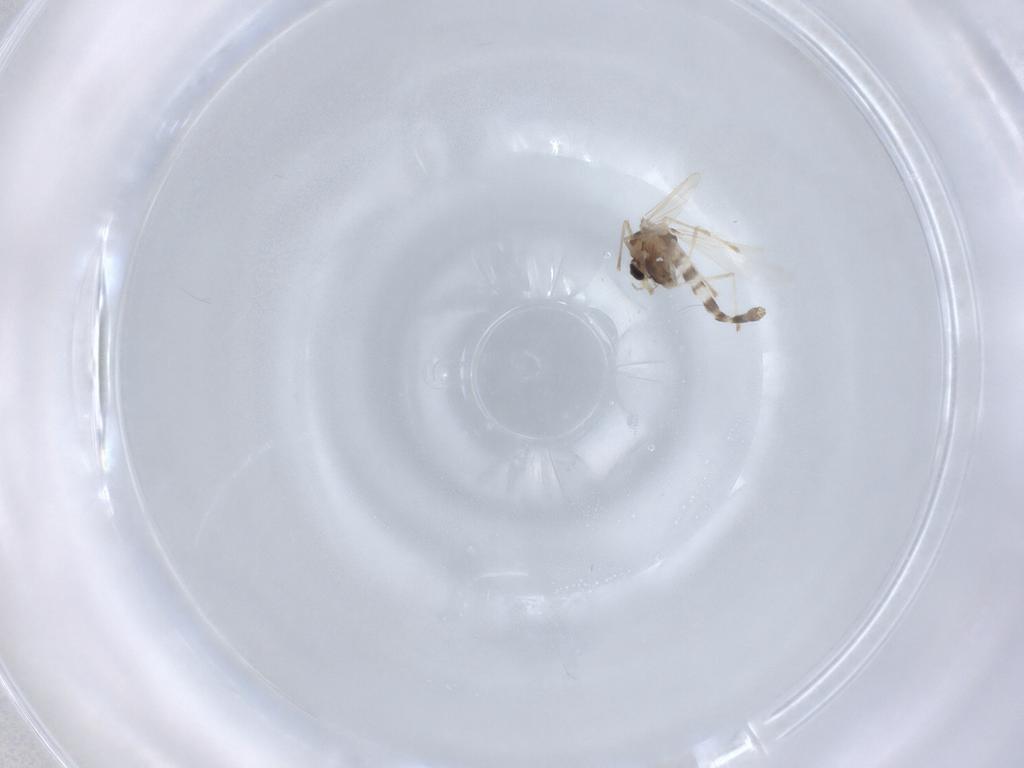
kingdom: Animalia
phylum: Arthropoda
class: Insecta
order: Diptera
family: Chironomidae
